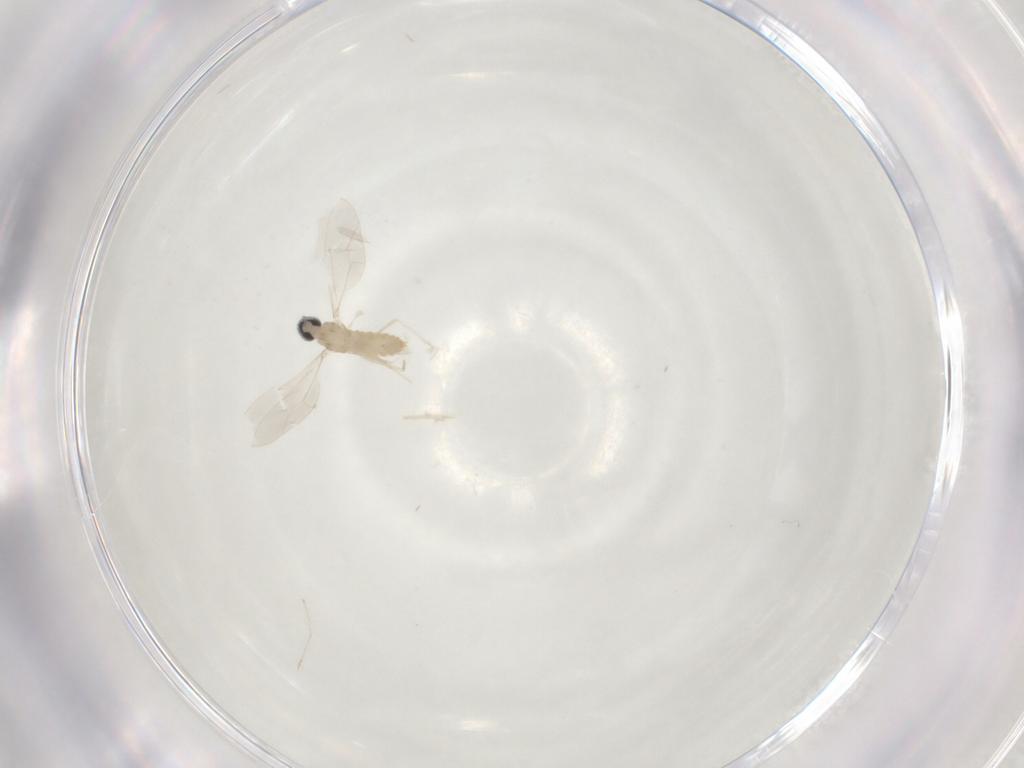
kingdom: Animalia
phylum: Arthropoda
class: Insecta
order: Diptera
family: Cecidomyiidae
